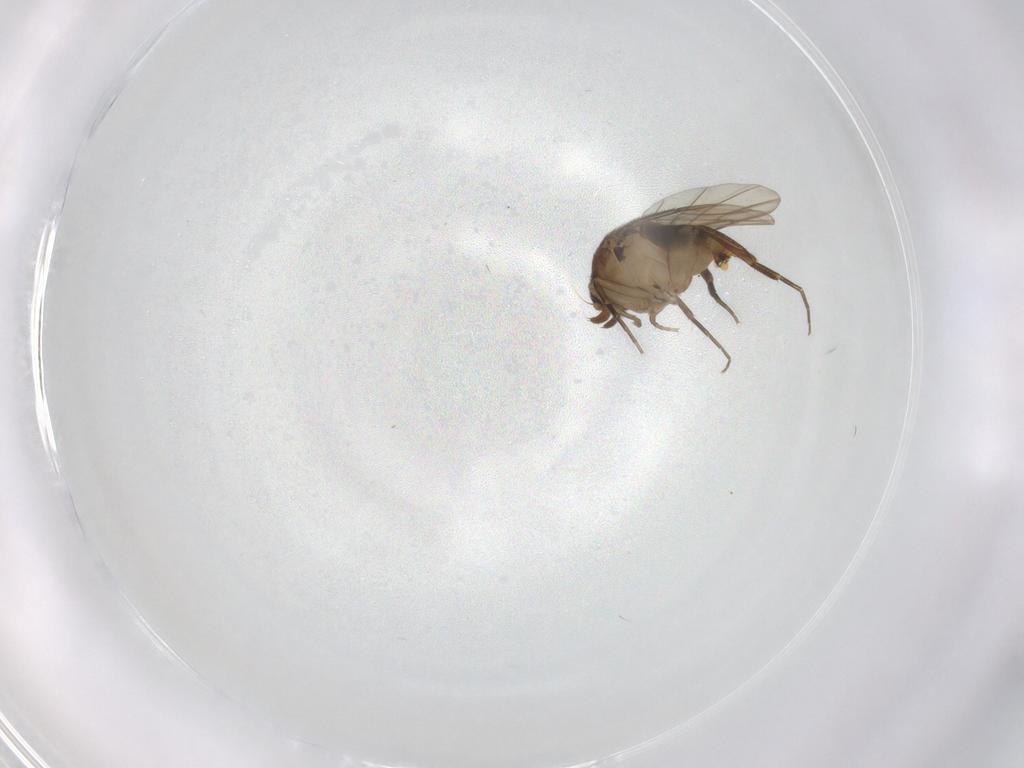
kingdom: Animalia
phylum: Arthropoda
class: Insecta
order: Diptera
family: Phoridae
